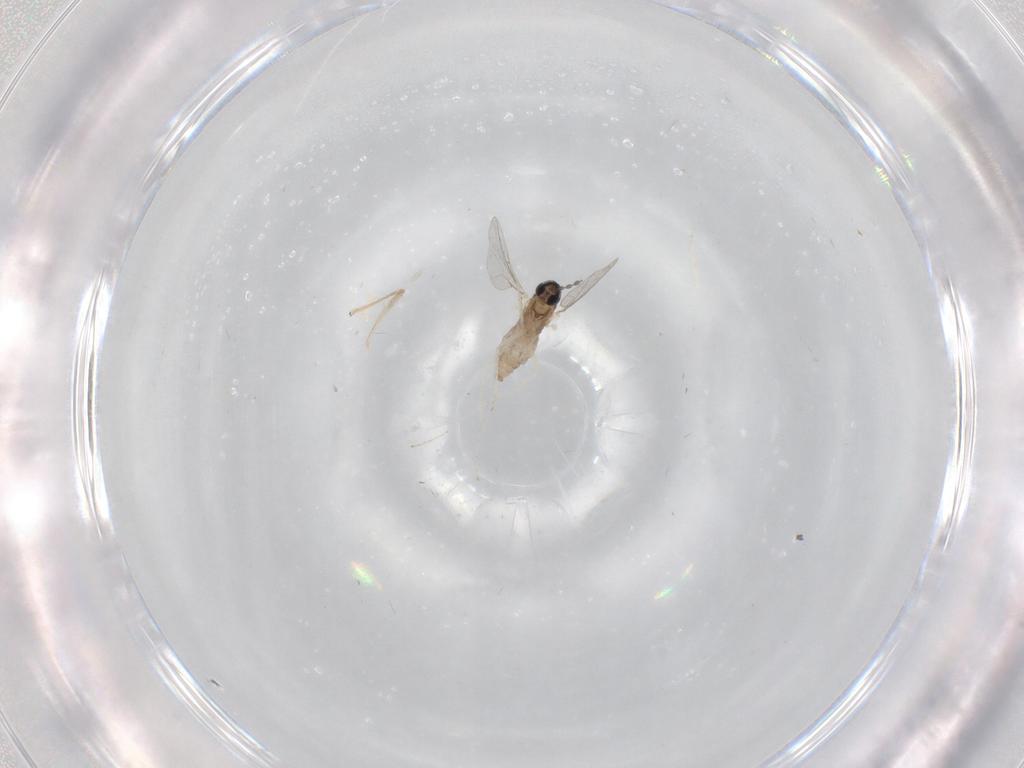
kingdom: Animalia
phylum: Arthropoda
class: Insecta
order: Diptera
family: Cecidomyiidae
